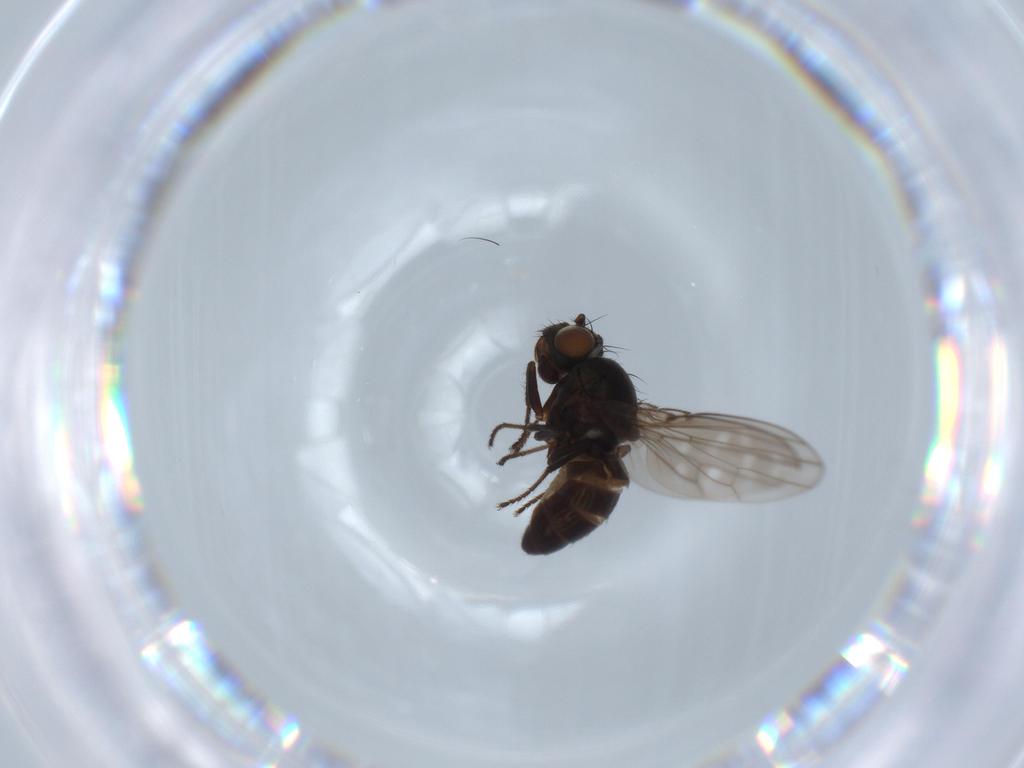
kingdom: Animalia
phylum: Arthropoda
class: Insecta
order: Diptera
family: Ephydridae
